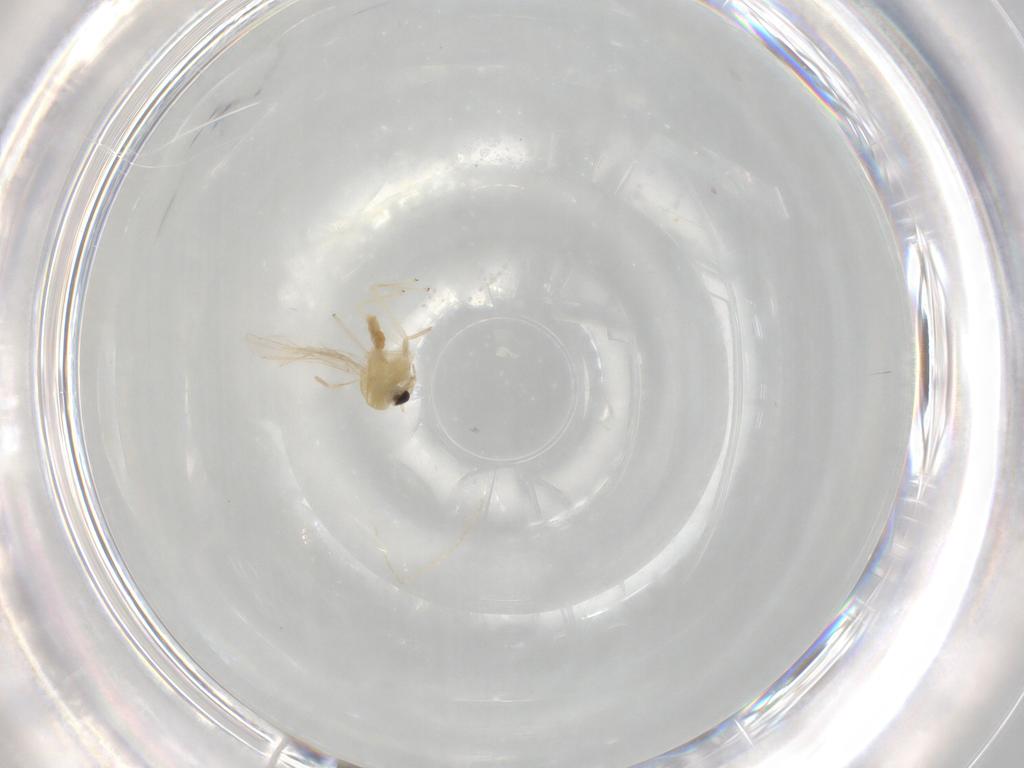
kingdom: Animalia
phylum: Arthropoda
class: Insecta
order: Diptera
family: Chironomidae
